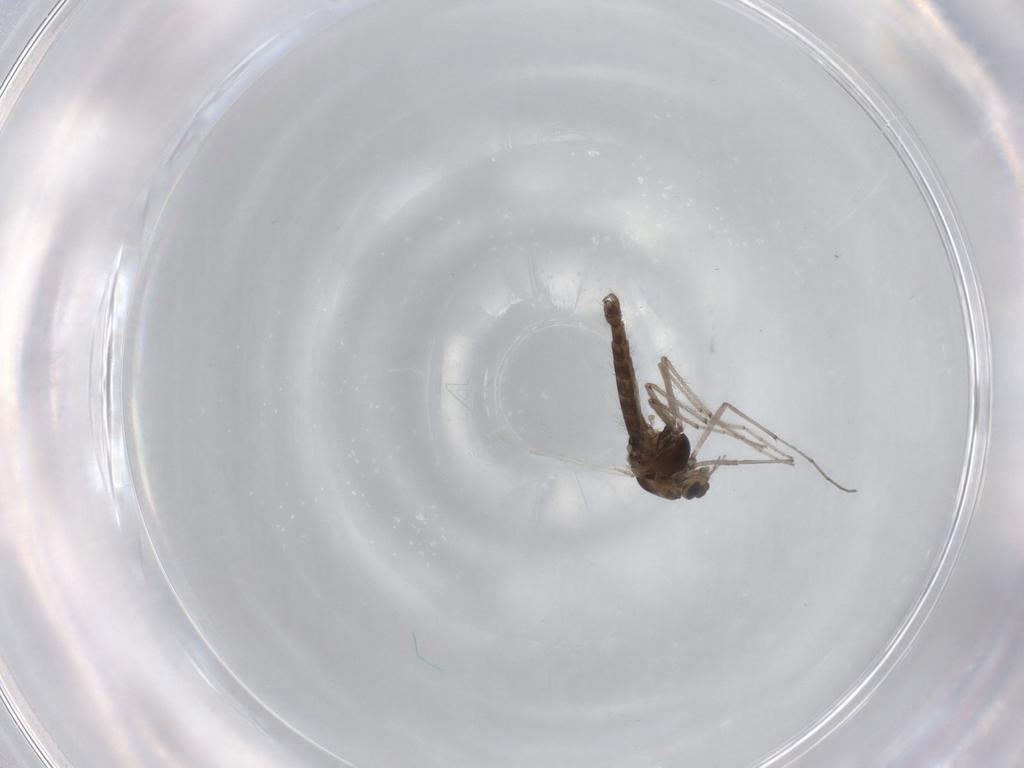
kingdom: Animalia
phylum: Arthropoda
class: Insecta
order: Diptera
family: Chironomidae
